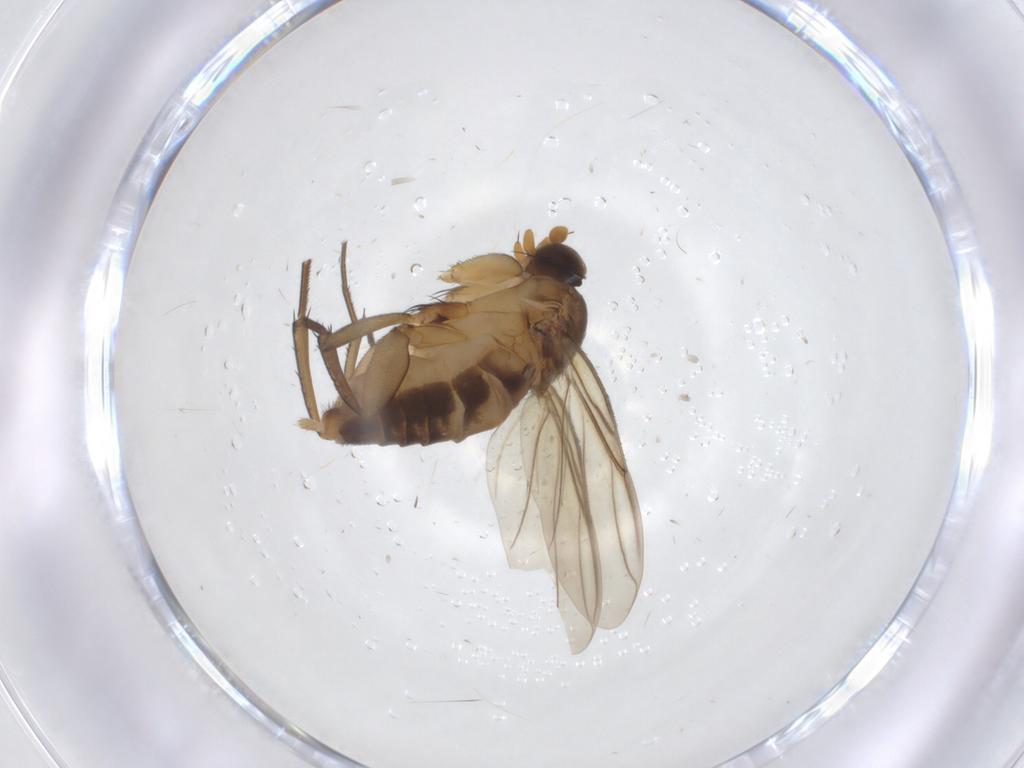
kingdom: Animalia
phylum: Arthropoda
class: Insecta
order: Diptera
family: Phoridae
